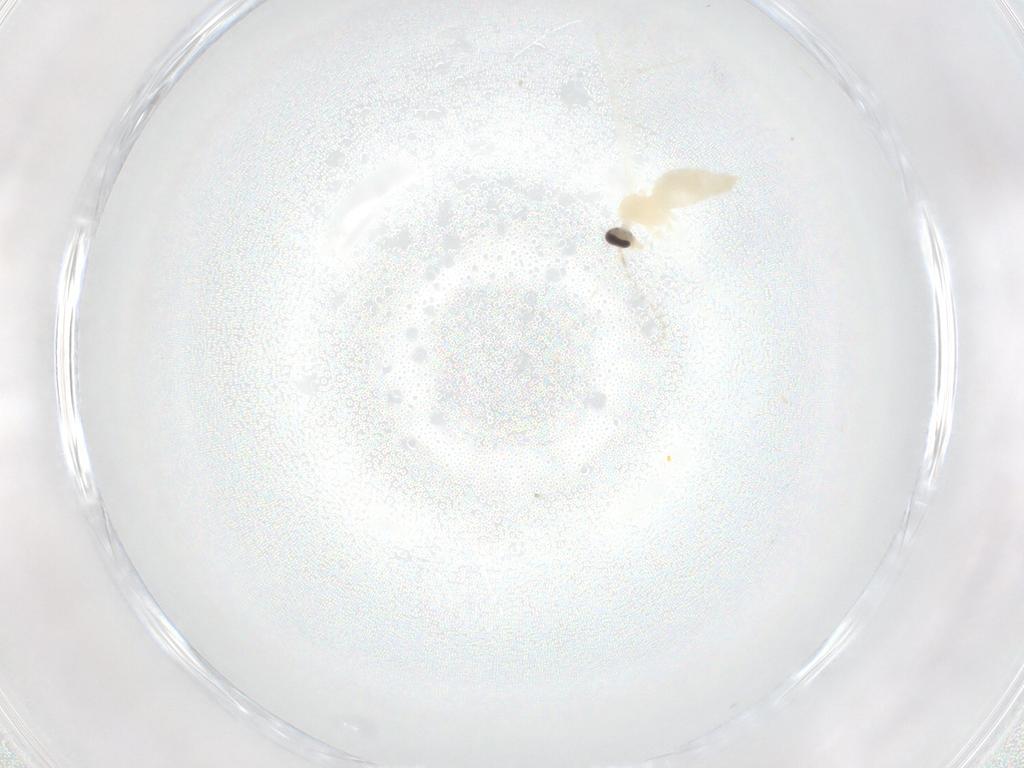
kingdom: Animalia
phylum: Arthropoda
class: Insecta
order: Diptera
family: Cecidomyiidae
